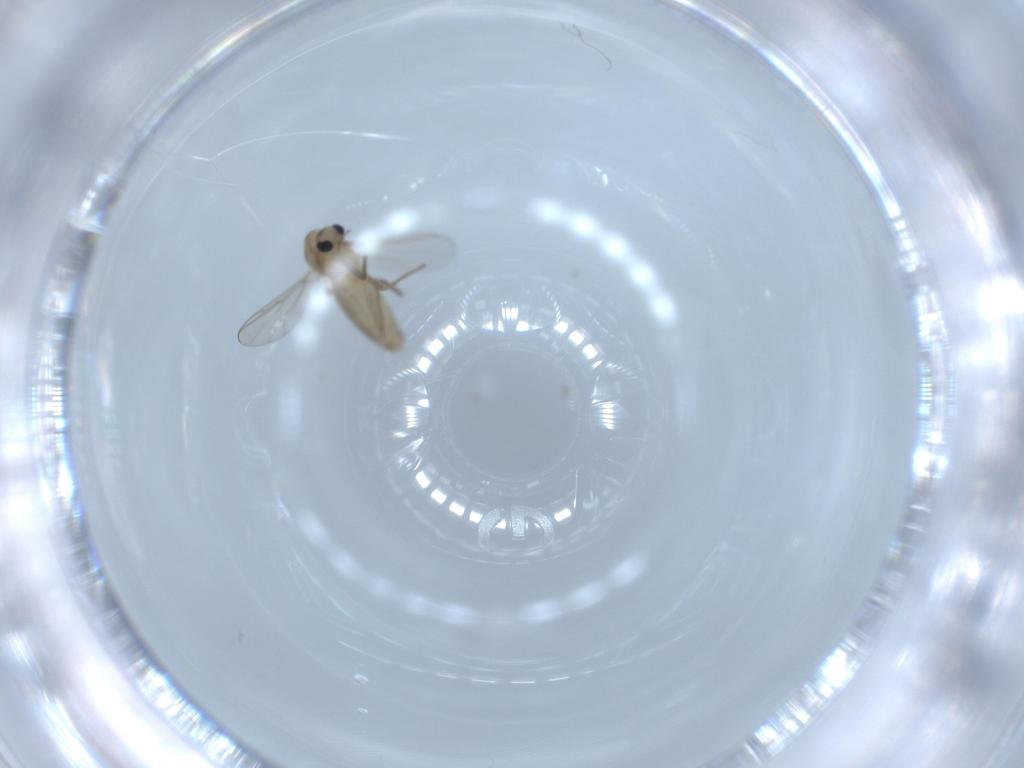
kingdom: Animalia
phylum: Arthropoda
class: Insecta
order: Diptera
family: Chironomidae
